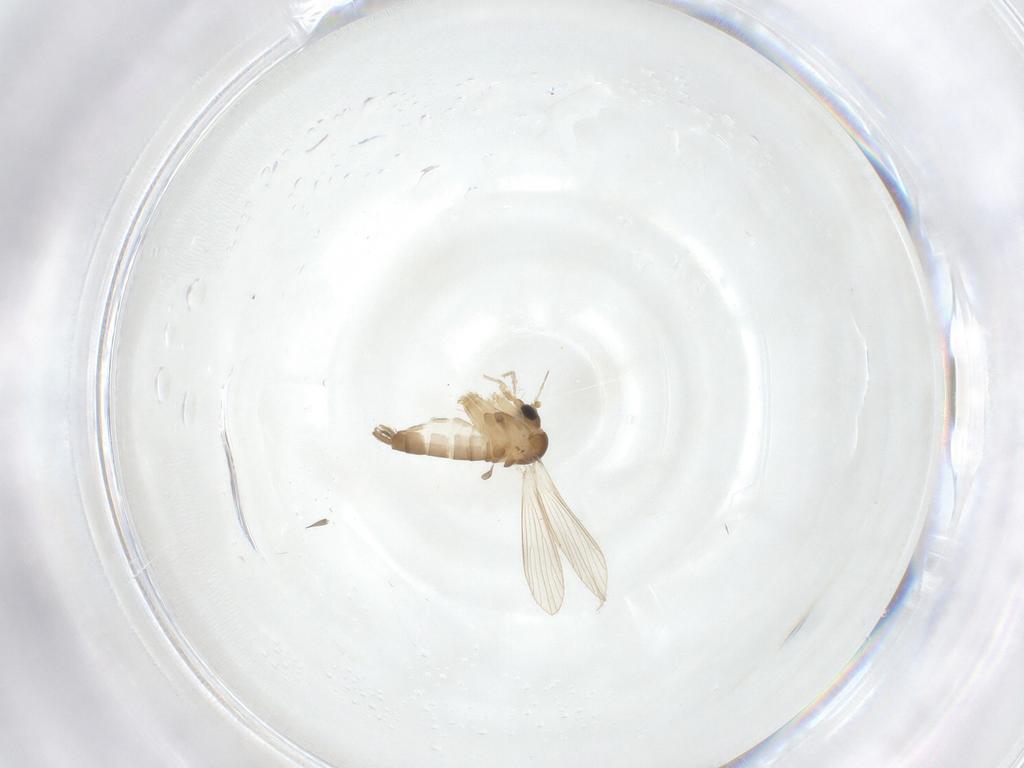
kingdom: Animalia
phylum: Arthropoda
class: Insecta
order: Diptera
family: Psychodidae
